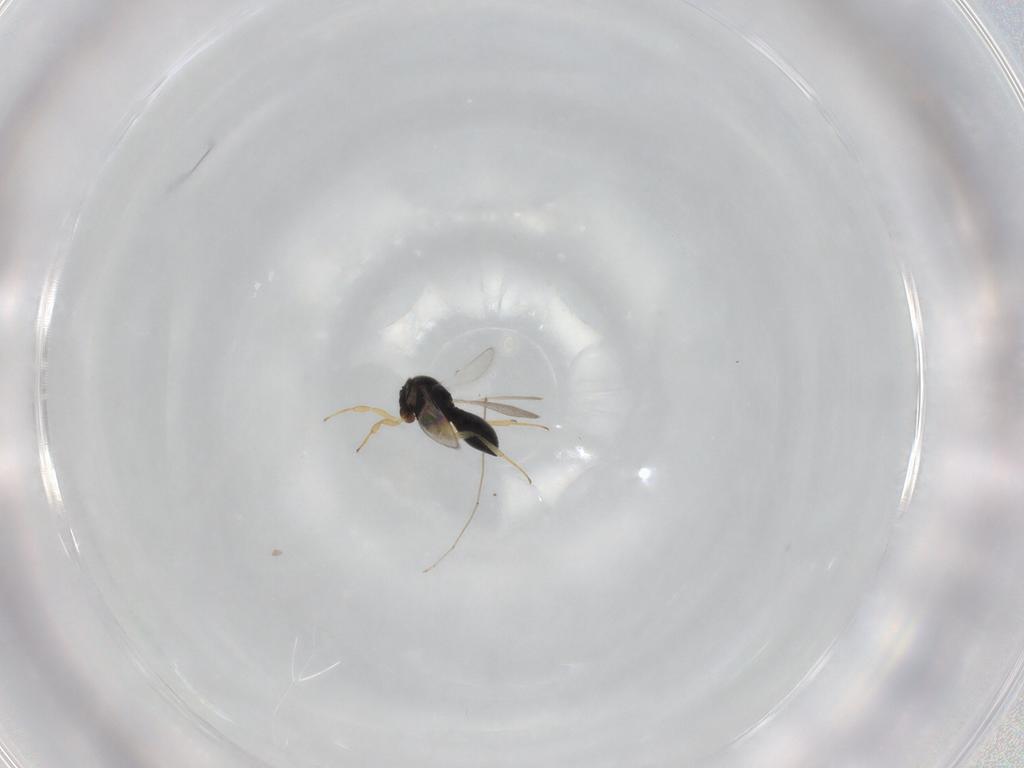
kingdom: Animalia
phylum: Arthropoda
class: Insecta
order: Hymenoptera
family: Scelionidae
